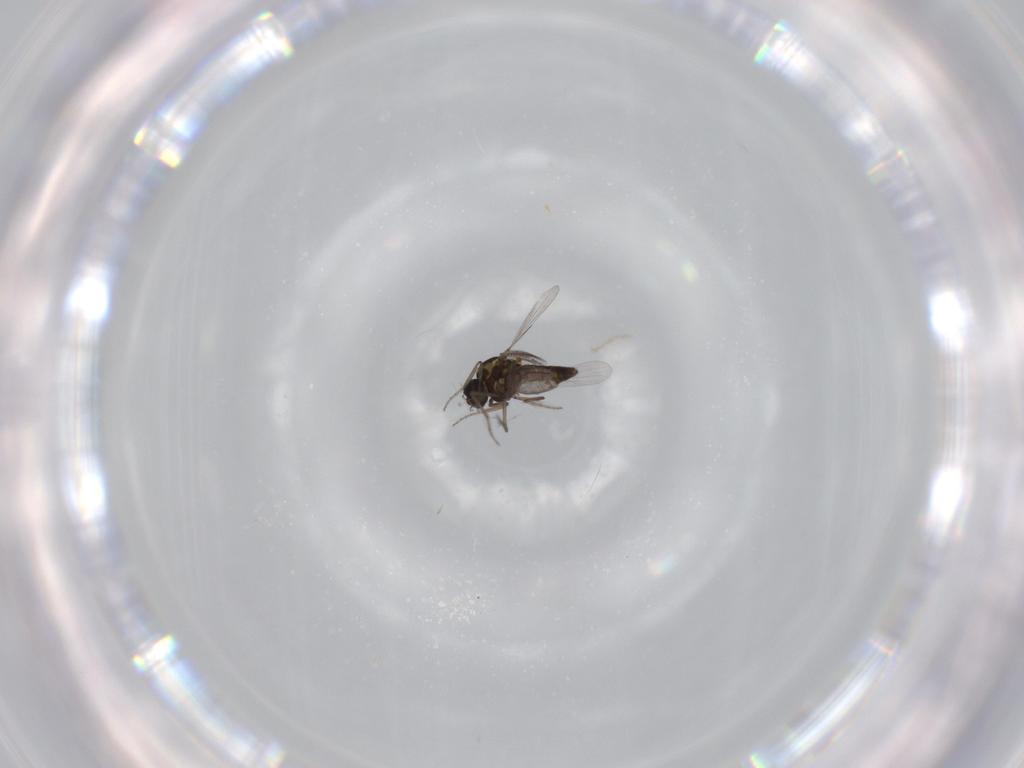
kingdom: Animalia
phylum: Arthropoda
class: Insecta
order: Diptera
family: Ceratopogonidae
